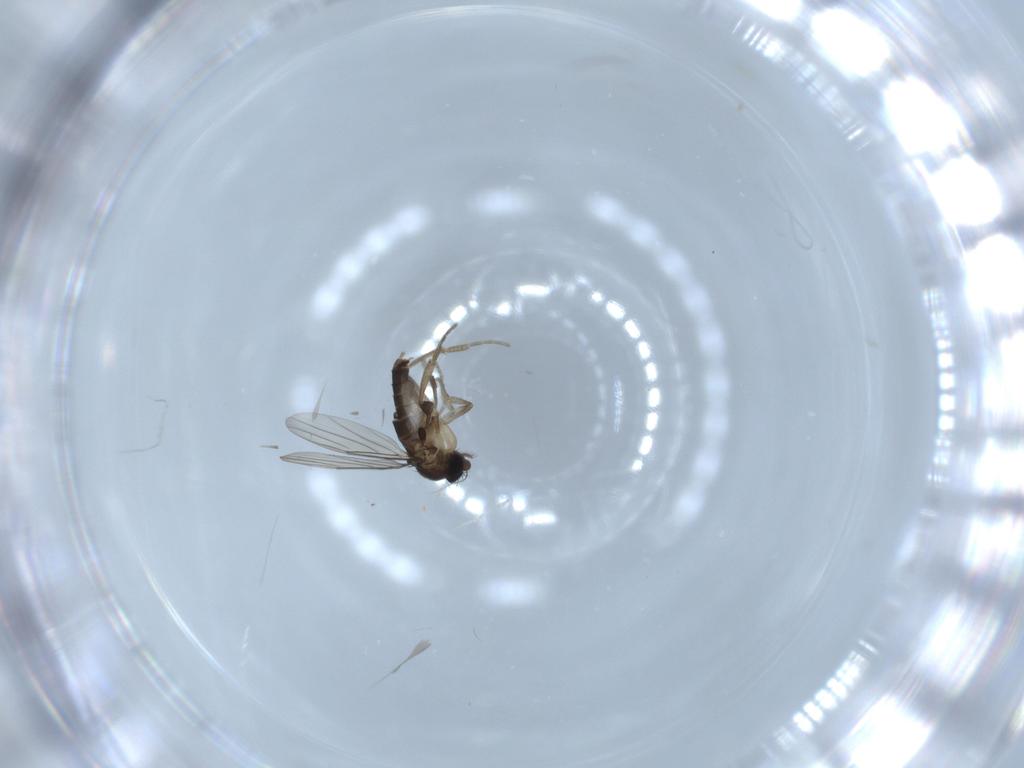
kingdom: Animalia
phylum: Arthropoda
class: Insecta
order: Diptera
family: Phoridae
